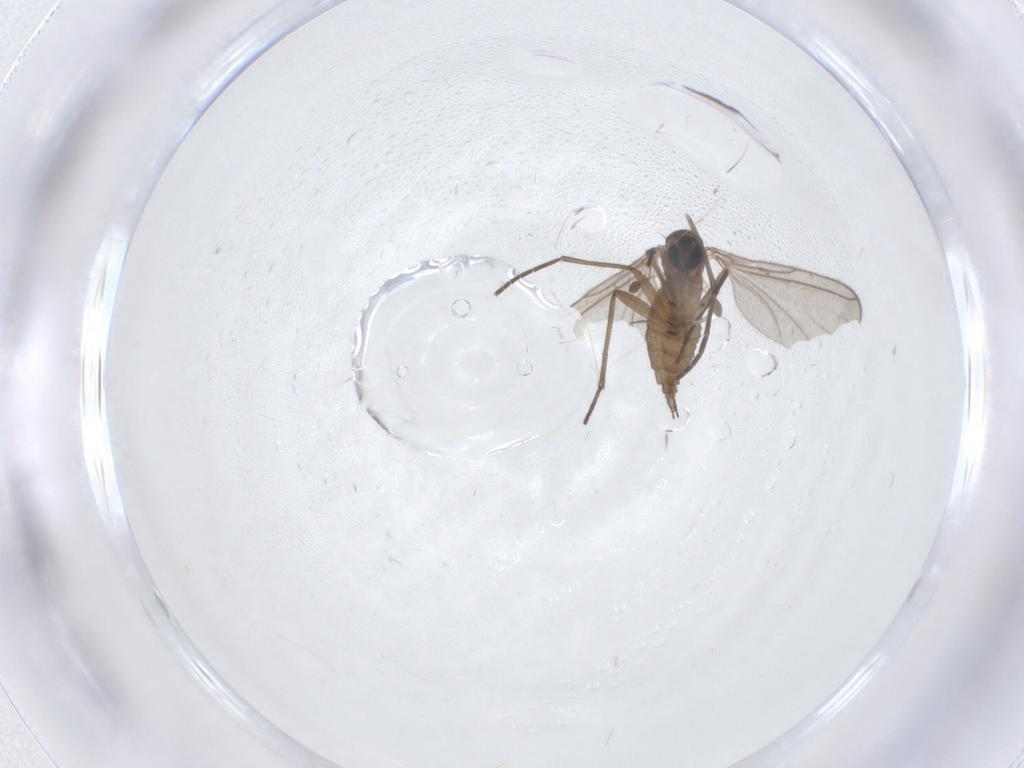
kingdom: Animalia
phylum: Arthropoda
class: Insecta
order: Diptera
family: Sciaridae
